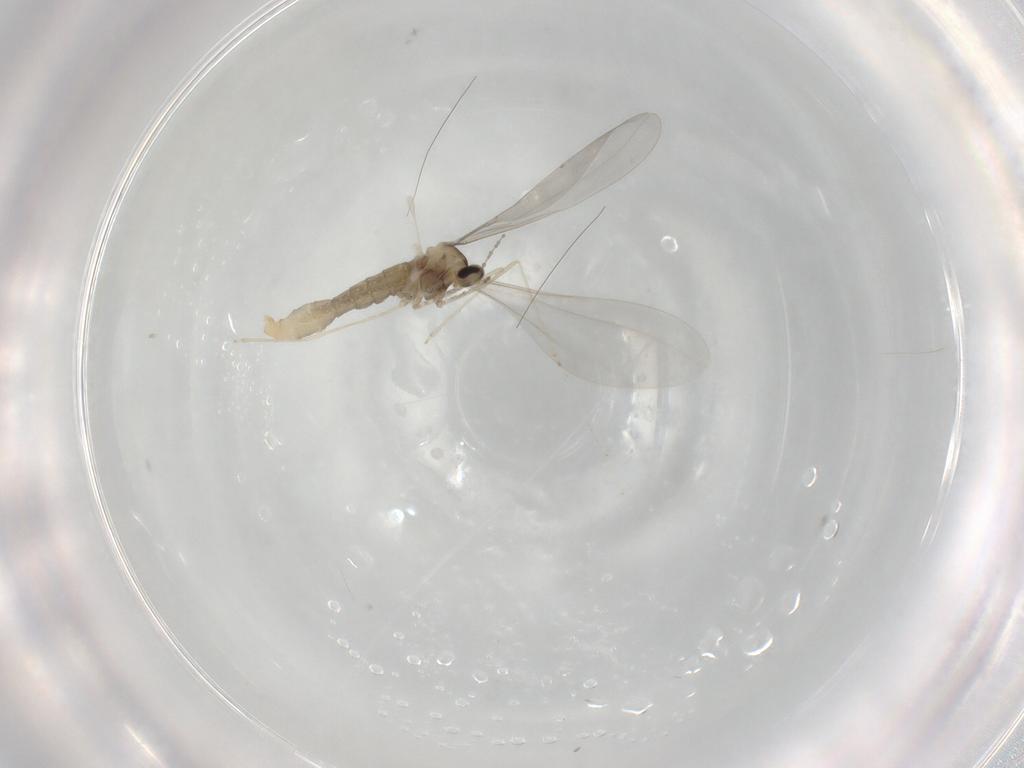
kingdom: Animalia
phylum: Arthropoda
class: Insecta
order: Diptera
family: Cecidomyiidae
